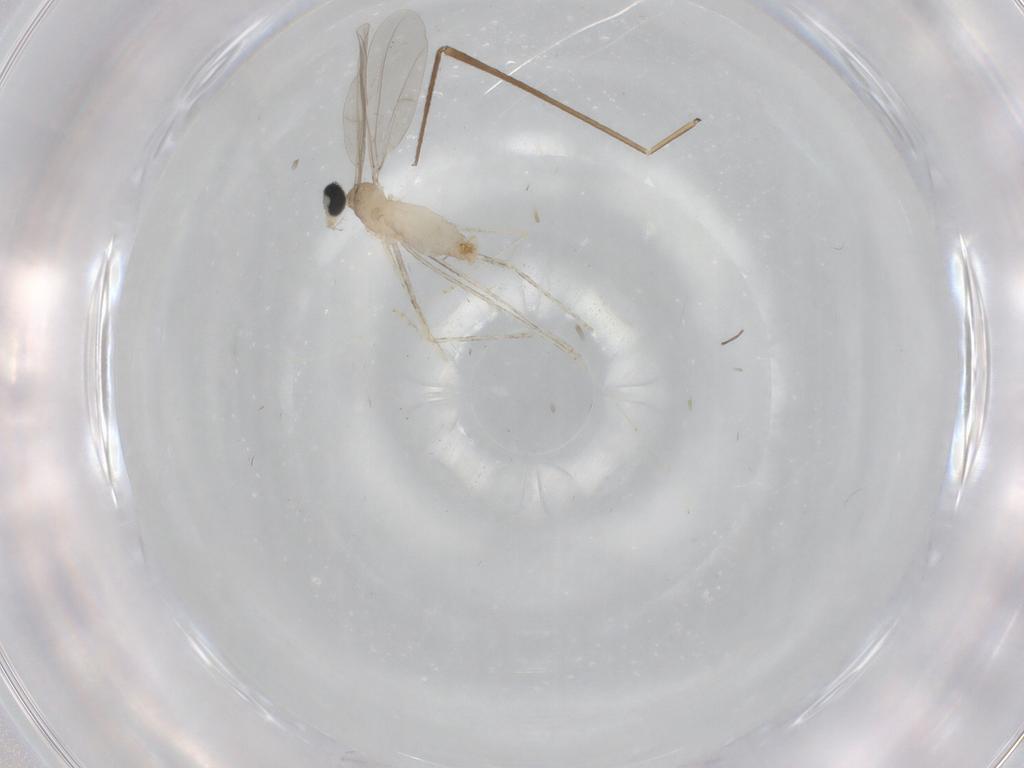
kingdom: Animalia
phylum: Arthropoda
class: Insecta
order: Diptera
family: Cecidomyiidae
